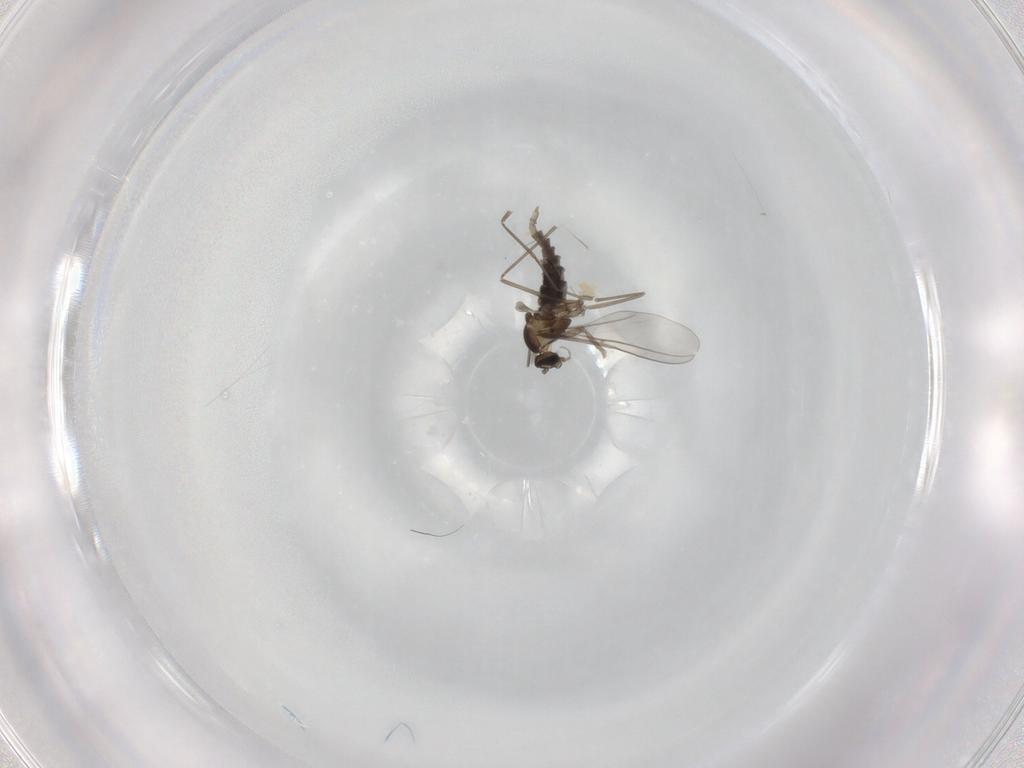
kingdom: Animalia
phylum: Arthropoda
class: Insecta
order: Diptera
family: Cecidomyiidae
